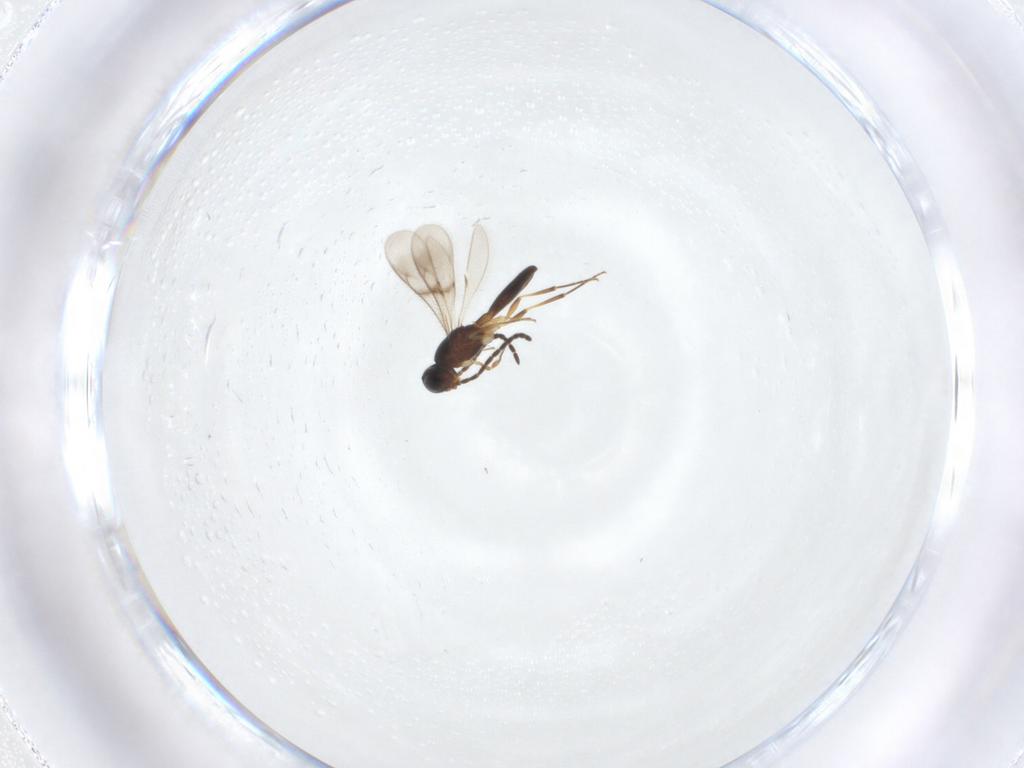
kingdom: Animalia
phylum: Arthropoda
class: Insecta
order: Hymenoptera
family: Scelionidae
